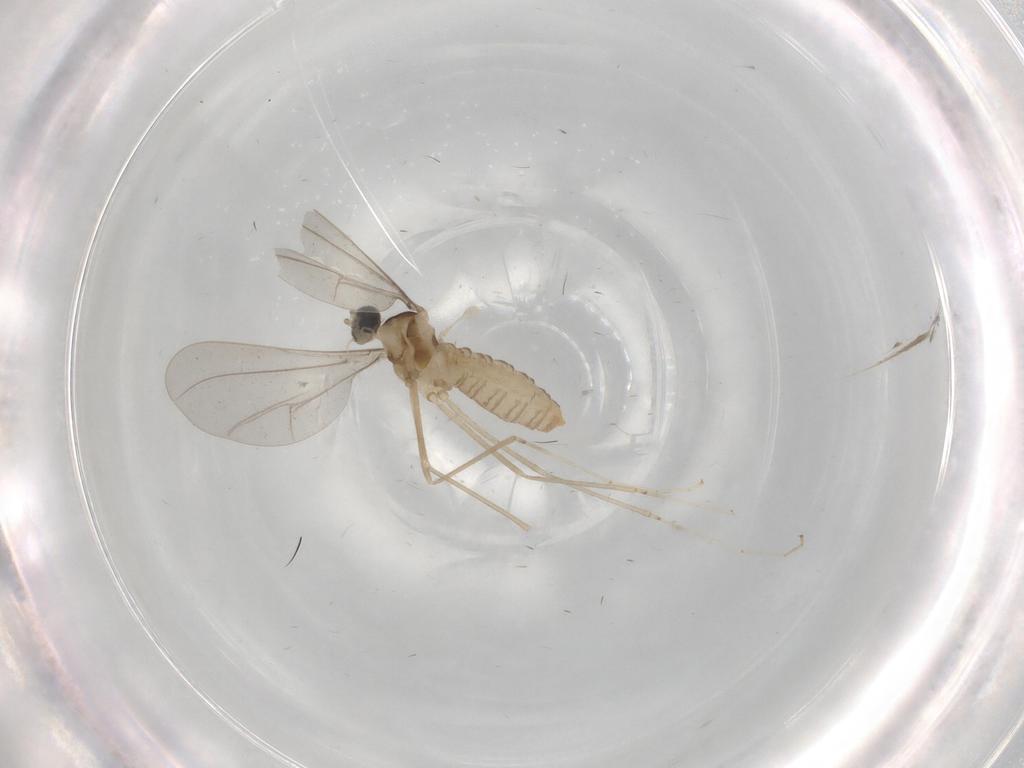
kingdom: Animalia
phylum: Arthropoda
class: Insecta
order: Diptera
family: Cecidomyiidae
